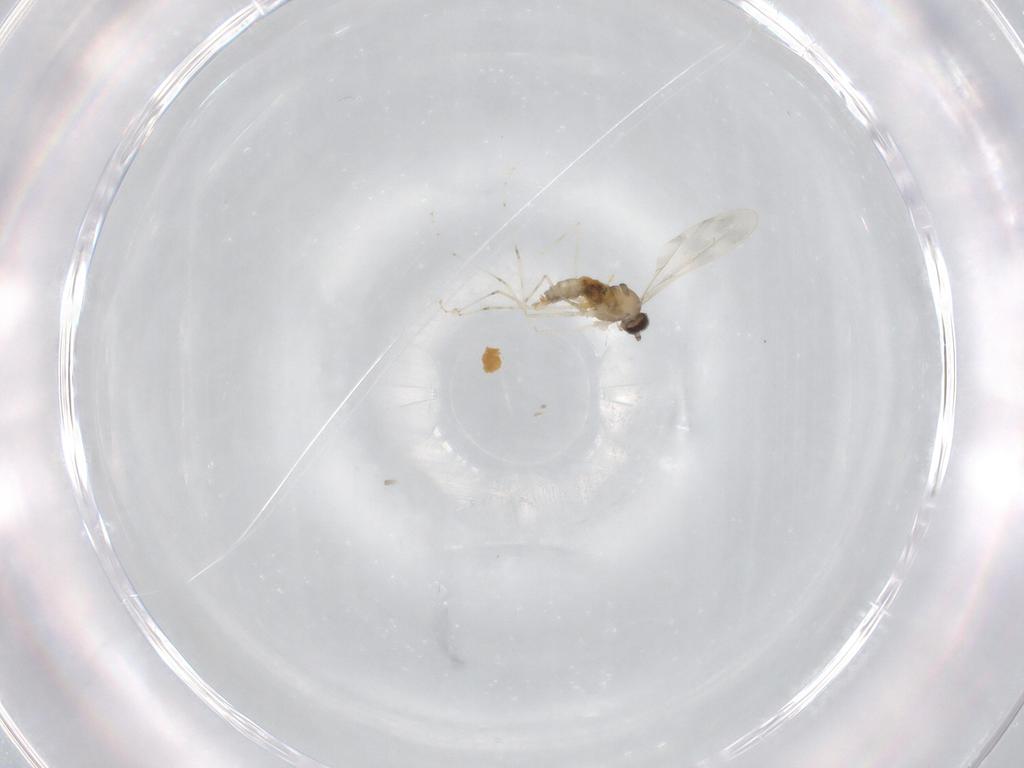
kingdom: Animalia
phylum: Arthropoda
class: Insecta
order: Diptera
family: Cecidomyiidae
